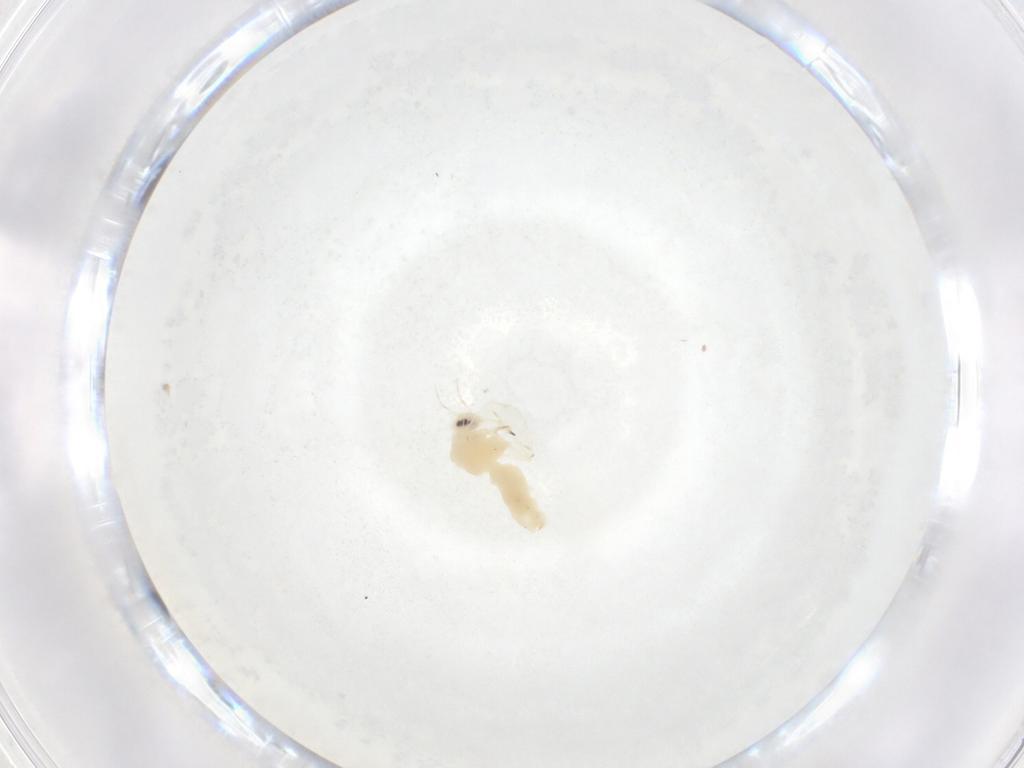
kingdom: Animalia
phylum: Arthropoda
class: Insecta
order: Hemiptera
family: Aleyrodidae
